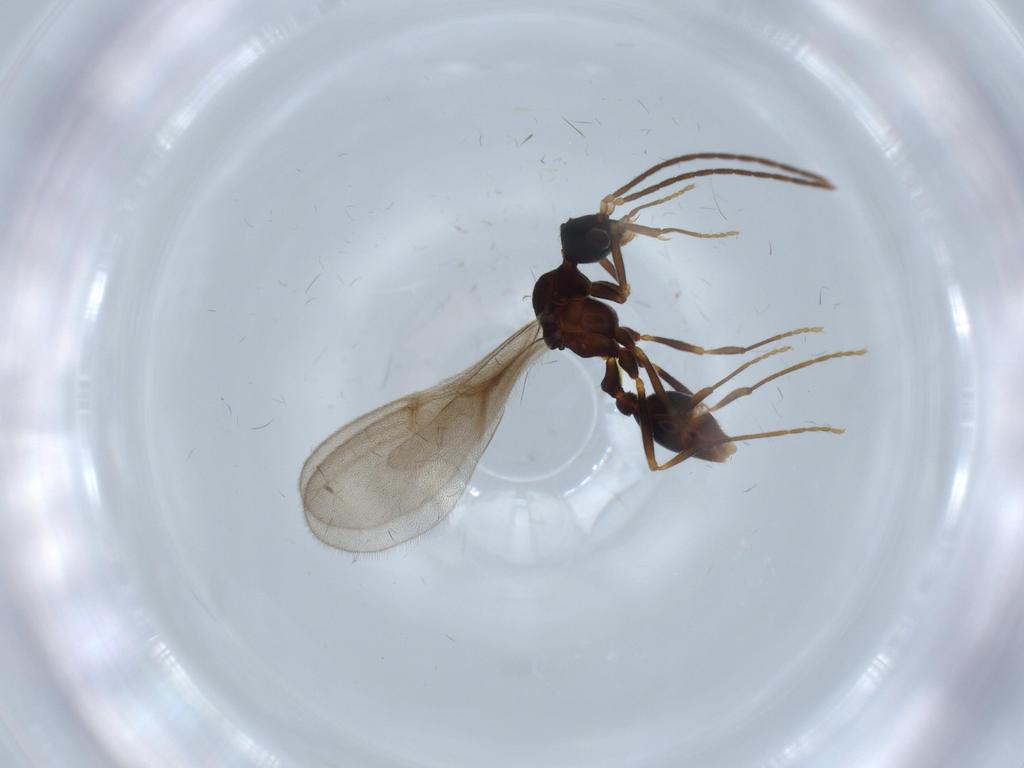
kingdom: Animalia
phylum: Arthropoda
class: Insecta
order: Hymenoptera
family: Formicidae
